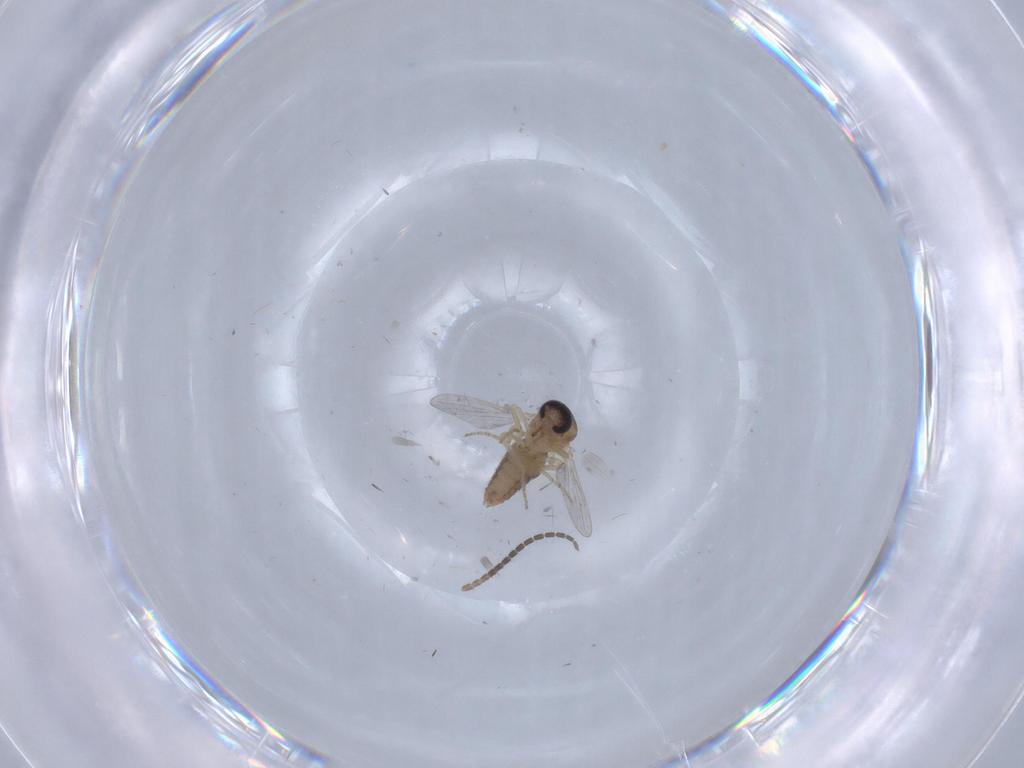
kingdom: Animalia
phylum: Arthropoda
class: Insecta
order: Diptera
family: Sciaridae
